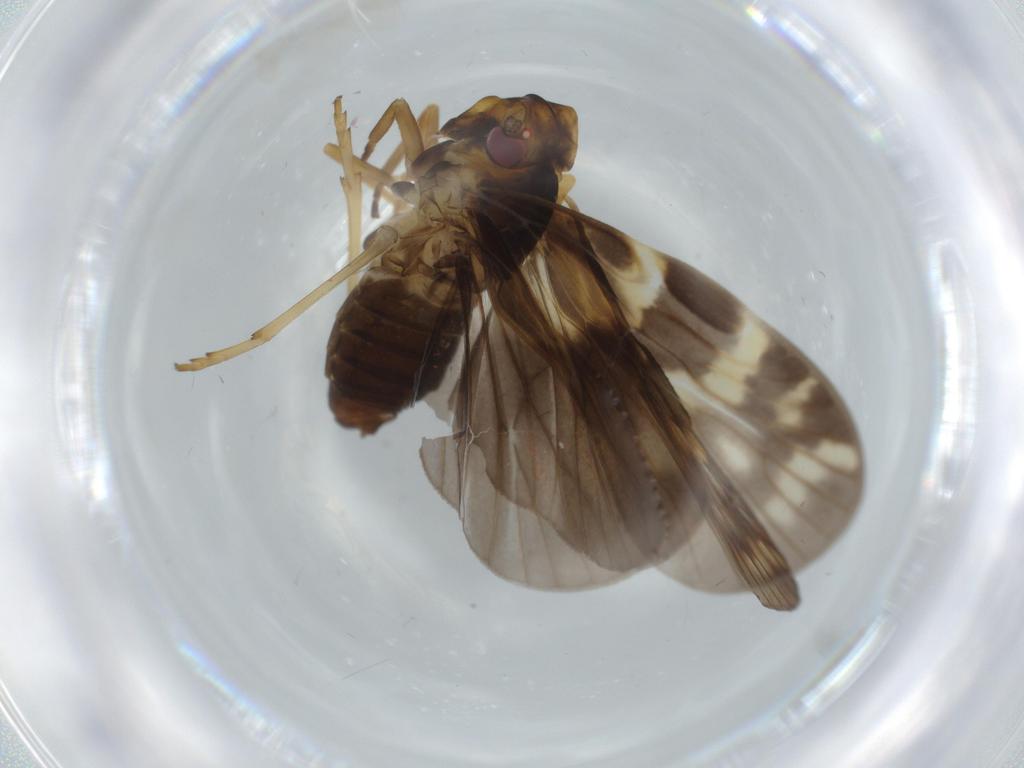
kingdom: Animalia
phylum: Arthropoda
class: Insecta
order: Hemiptera
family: Cixiidae
